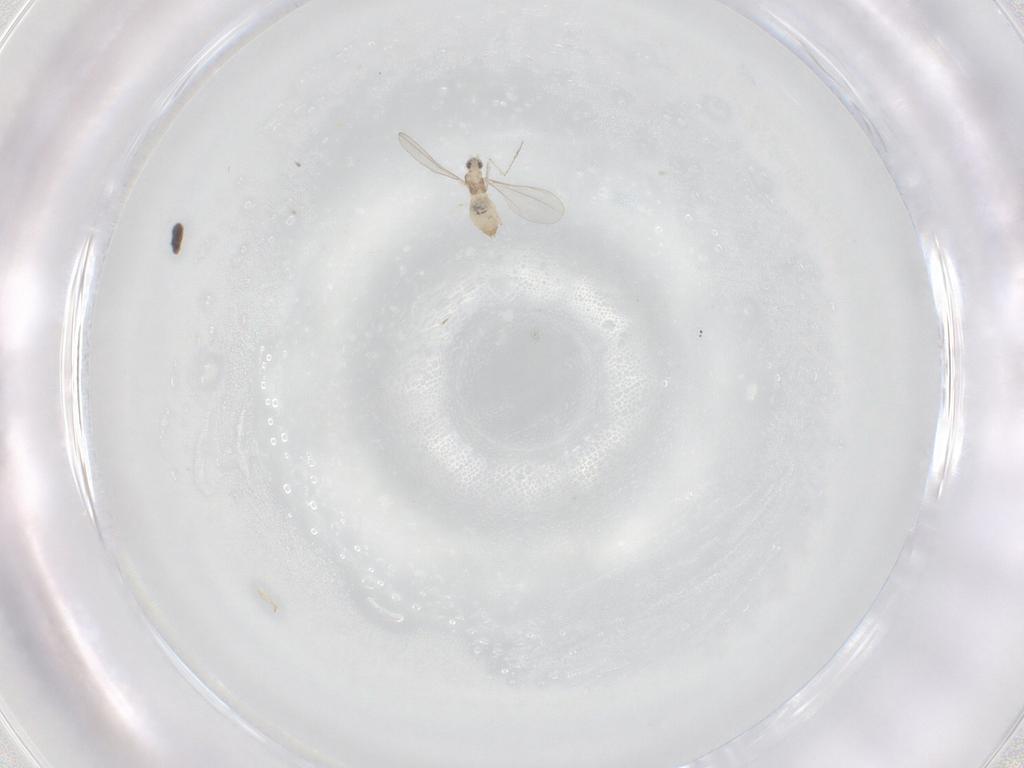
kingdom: Animalia
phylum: Arthropoda
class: Insecta
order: Diptera
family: Cecidomyiidae
